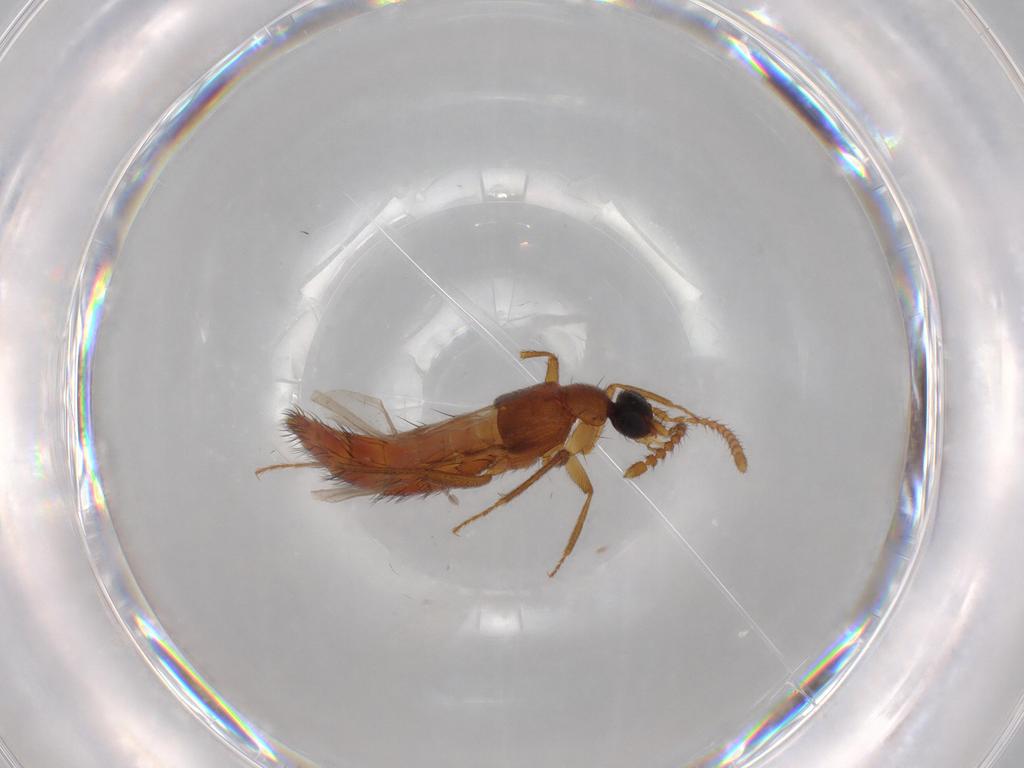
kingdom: Animalia
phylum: Arthropoda
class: Insecta
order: Coleoptera
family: Staphylinidae
